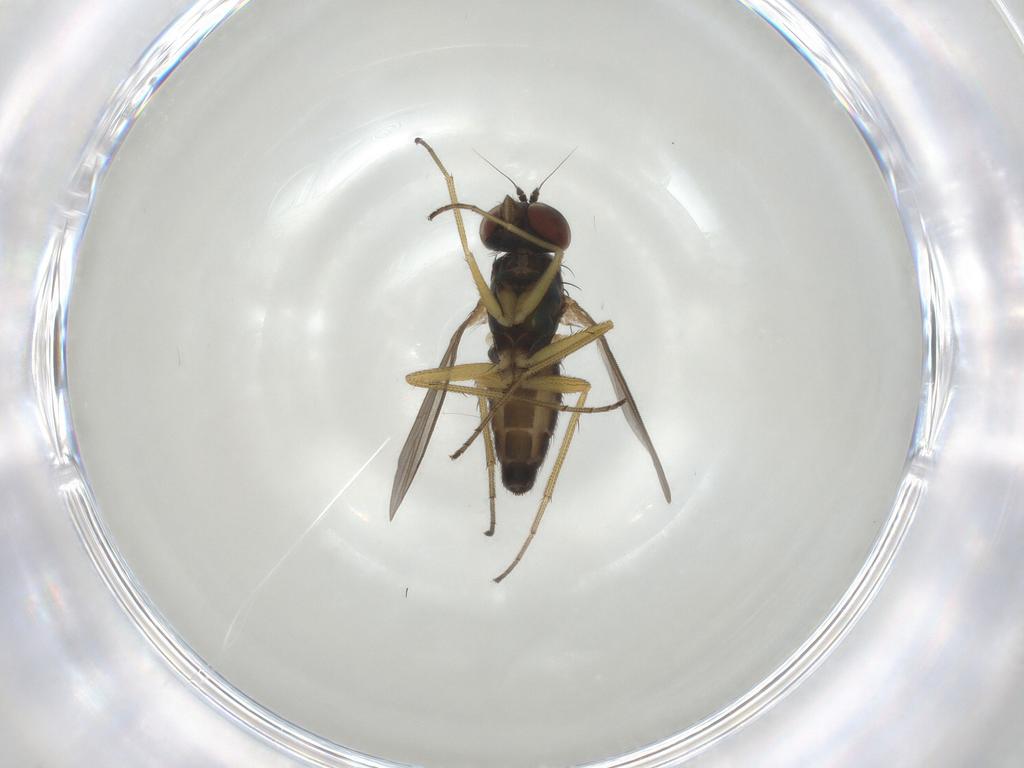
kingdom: Animalia
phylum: Arthropoda
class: Insecta
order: Diptera
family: Dolichopodidae
